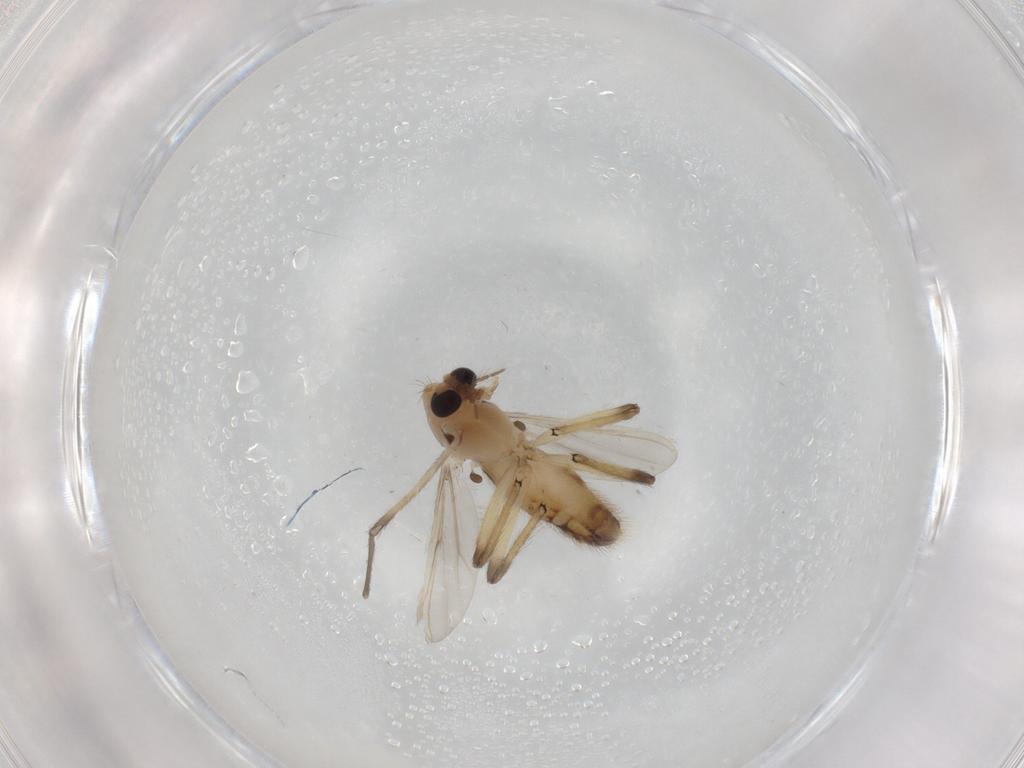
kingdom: Animalia
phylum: Arthropoda
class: Insecta
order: Diptera
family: Chironomidae
